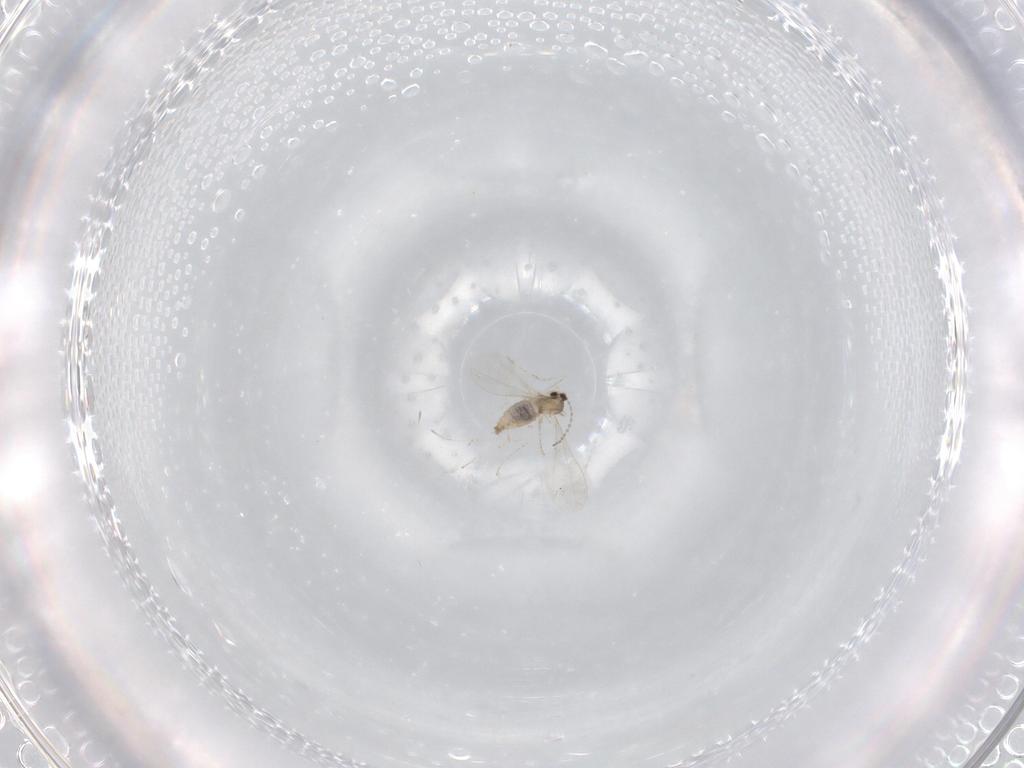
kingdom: Animalia
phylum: Arthropoda
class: Insecta
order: Diptera
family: Cecidomyiidae
